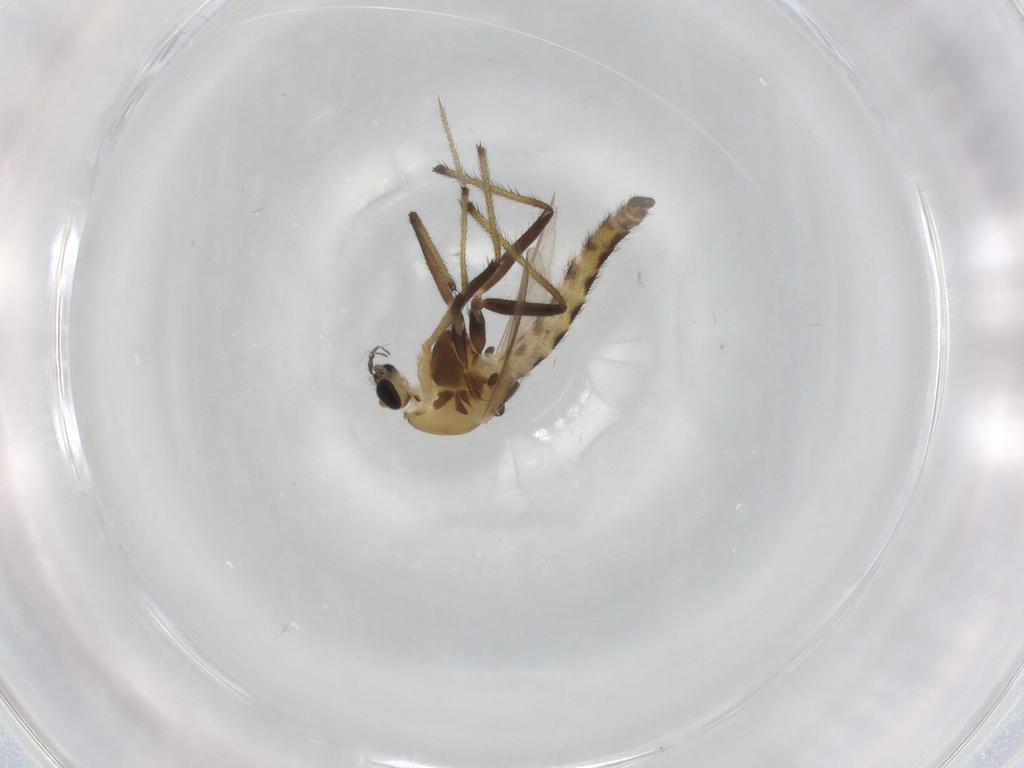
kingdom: Animalia
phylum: Arthropoda
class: Insecta
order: Diptera
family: Chironomidae
